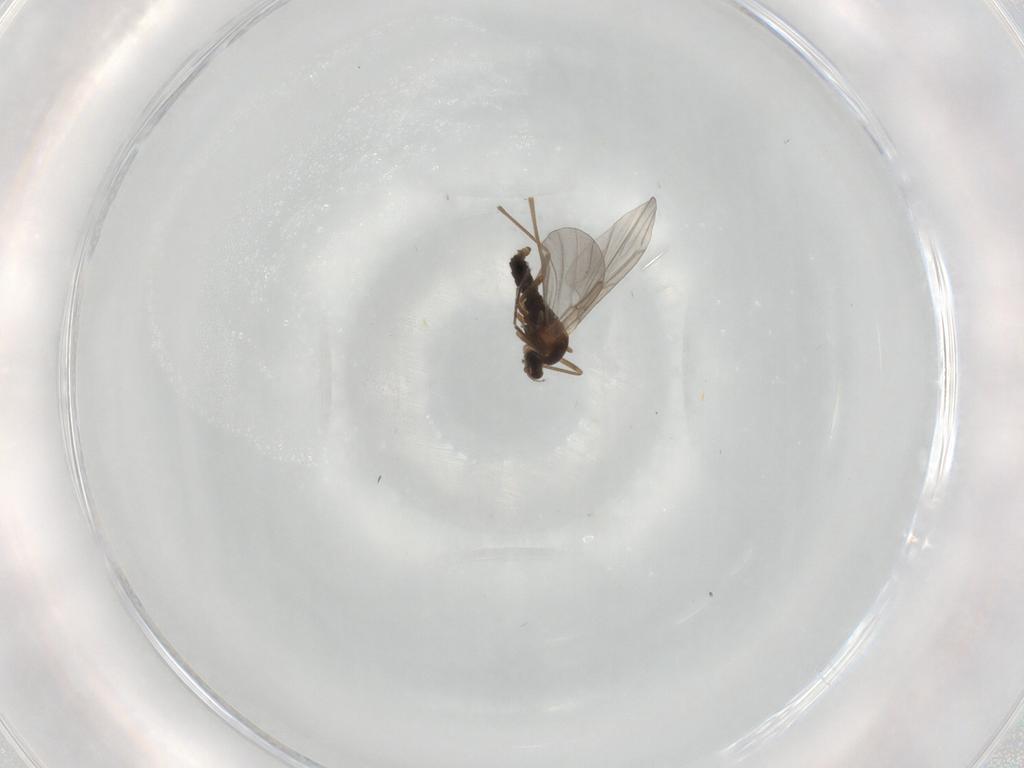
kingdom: Animalia
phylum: Arthropoda
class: Insecta
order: Diptera
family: Cecidomyiidae
